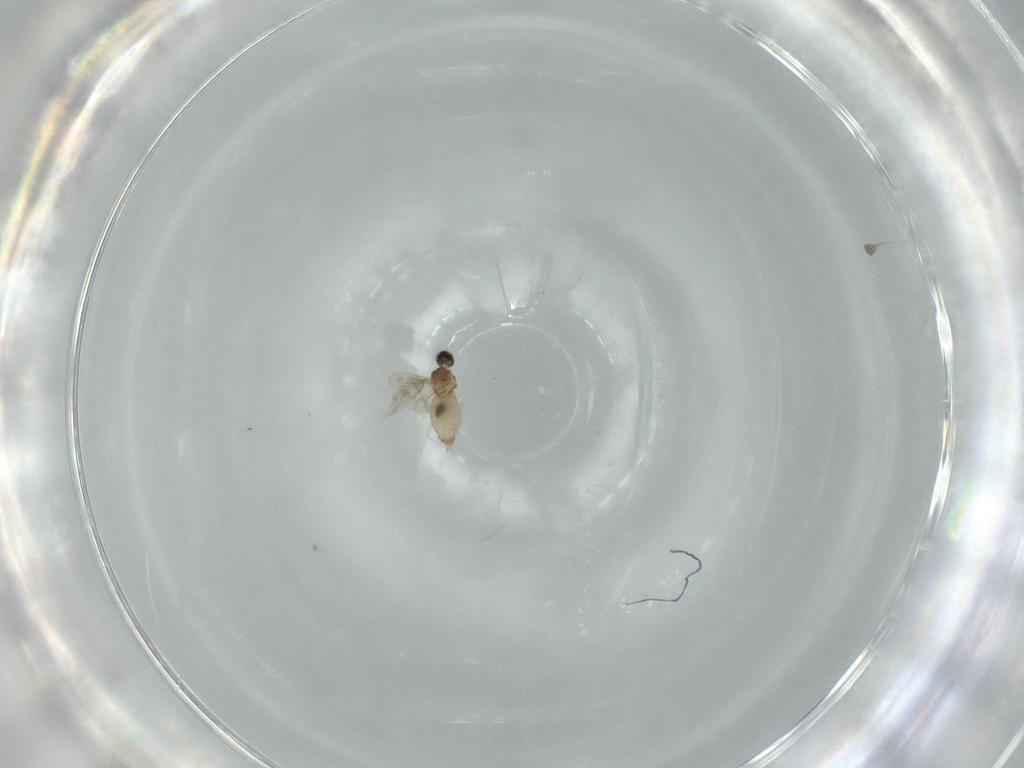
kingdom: Animalia
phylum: Arthropoda
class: Insecta
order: Diptera
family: Cecidomyiidae
